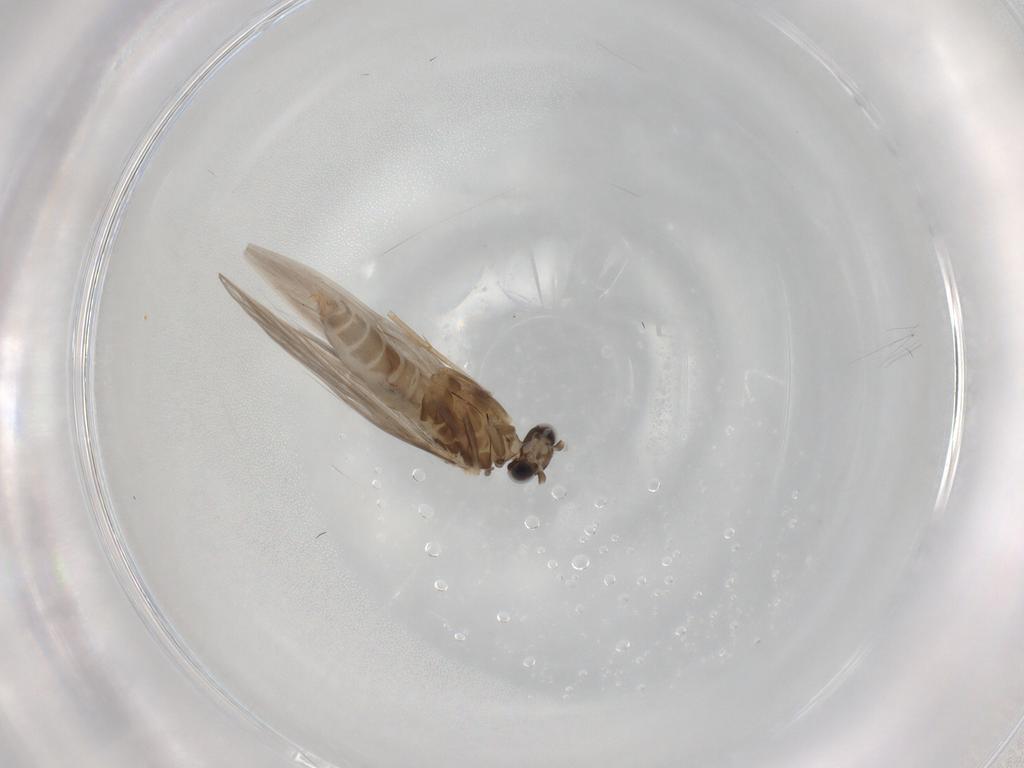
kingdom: Animalia
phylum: Arthropoda
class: Insecta
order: Trichoptera
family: Hydroptilidae
